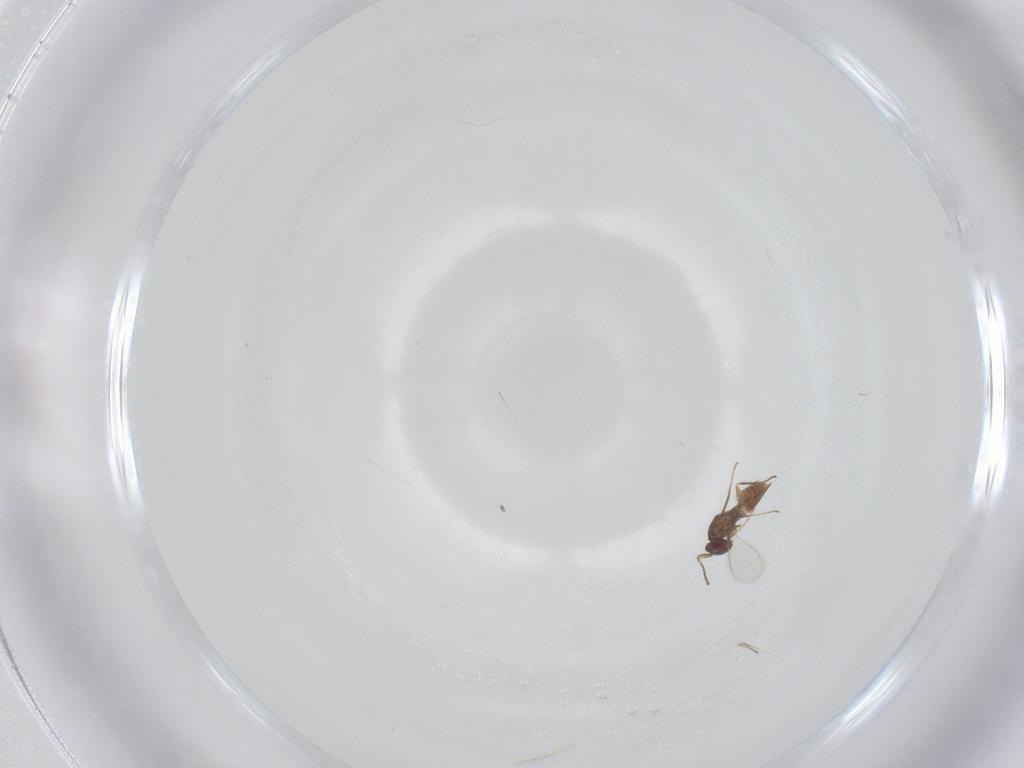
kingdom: Animalia
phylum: Arthropoda
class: Insecta
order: Hymenoptera
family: Mymaridae
